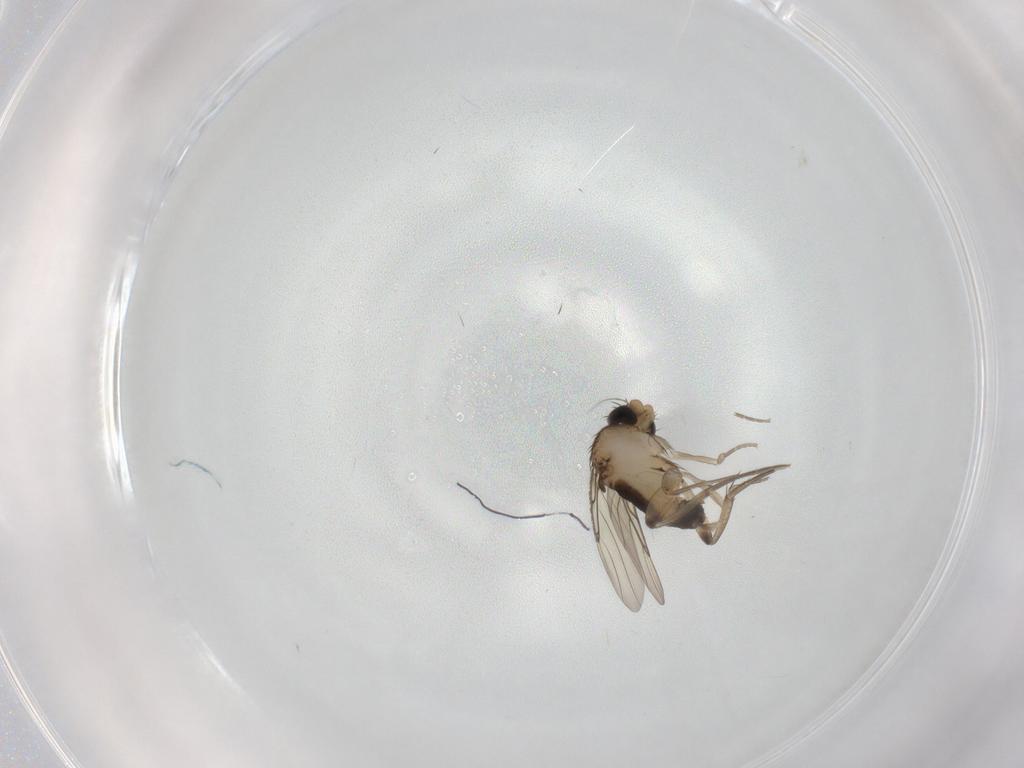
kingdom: Animalia
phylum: Arthropoda
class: Insecta
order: Diptera
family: Phoridae
